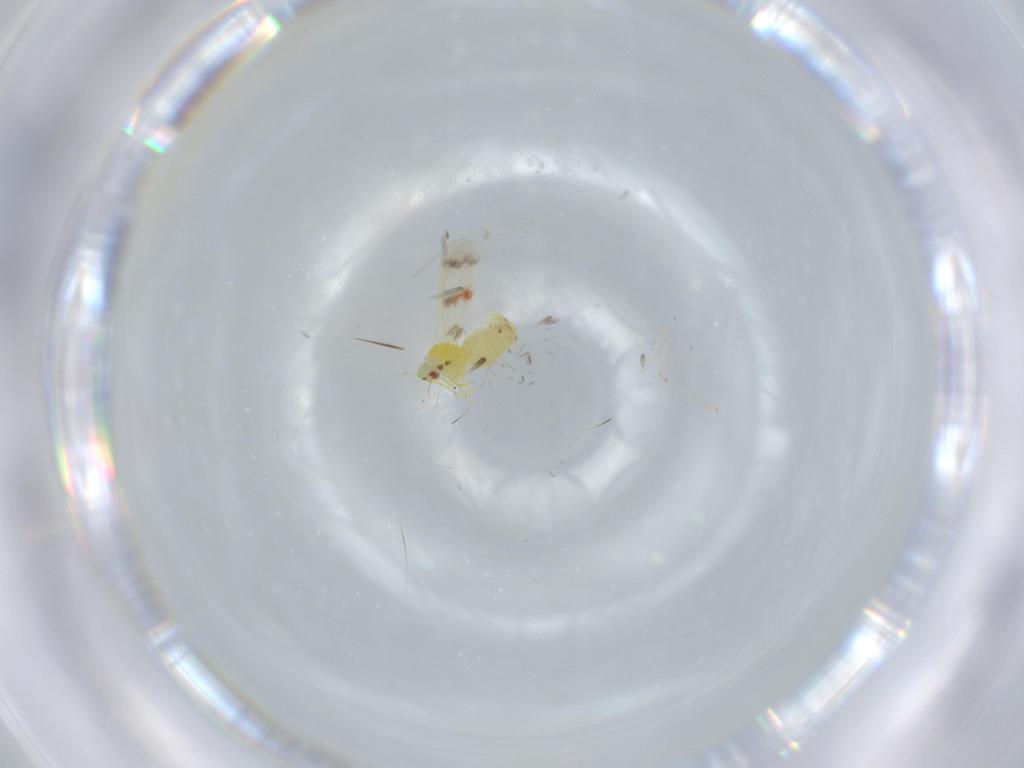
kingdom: Animalia
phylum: Arthropoda
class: Insecta
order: Hemiptera
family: Aleyrodidae
